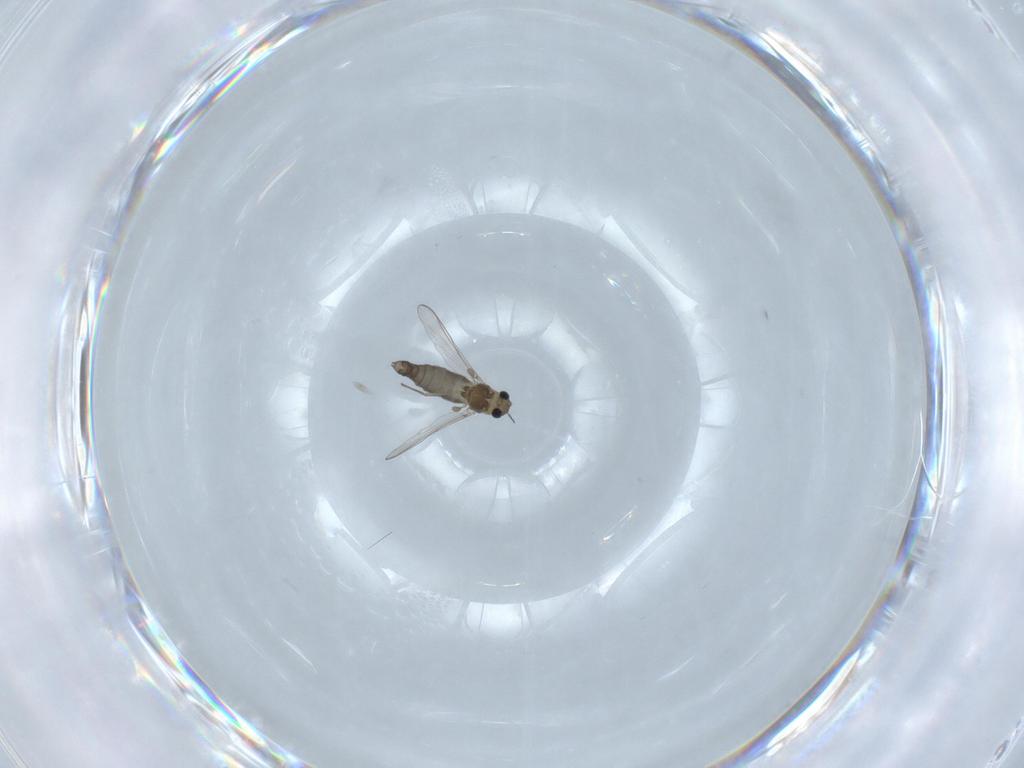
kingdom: Animalia
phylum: Arthropoda
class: Insecta
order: Diptera
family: Chironomidae
